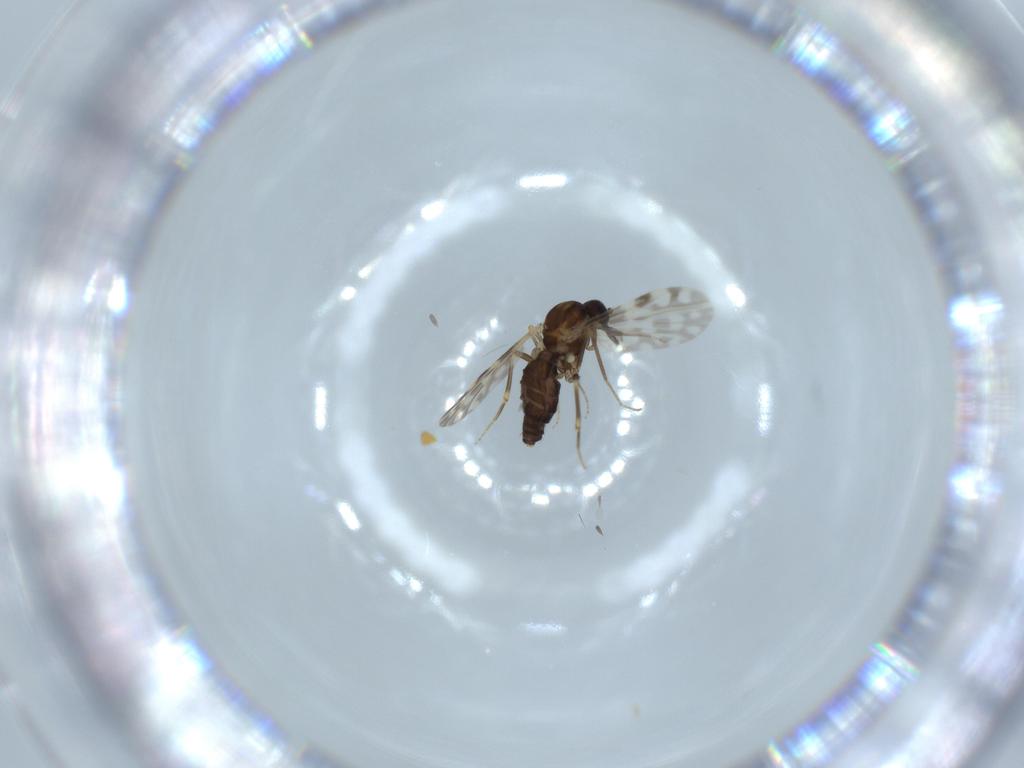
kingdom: Animalia
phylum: Arthropoda
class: Insecta
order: Diptera
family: Ceratopogonidae
